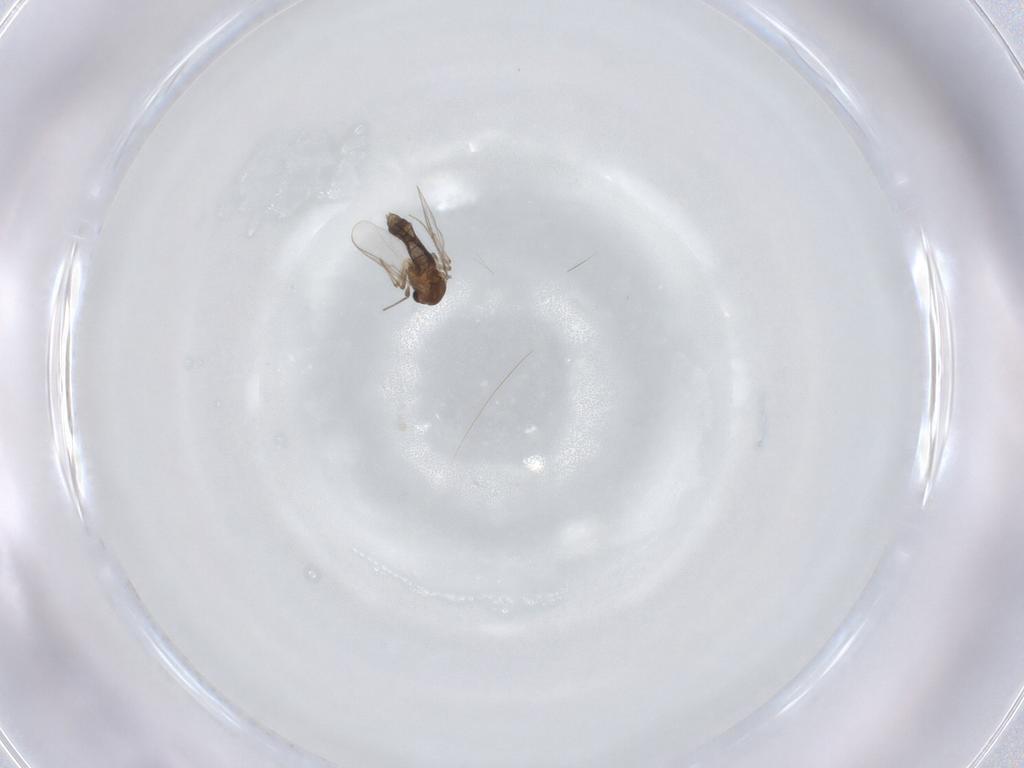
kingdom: Animalia
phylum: Arthropoda
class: Insecta
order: Diptera
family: Chironomidae
